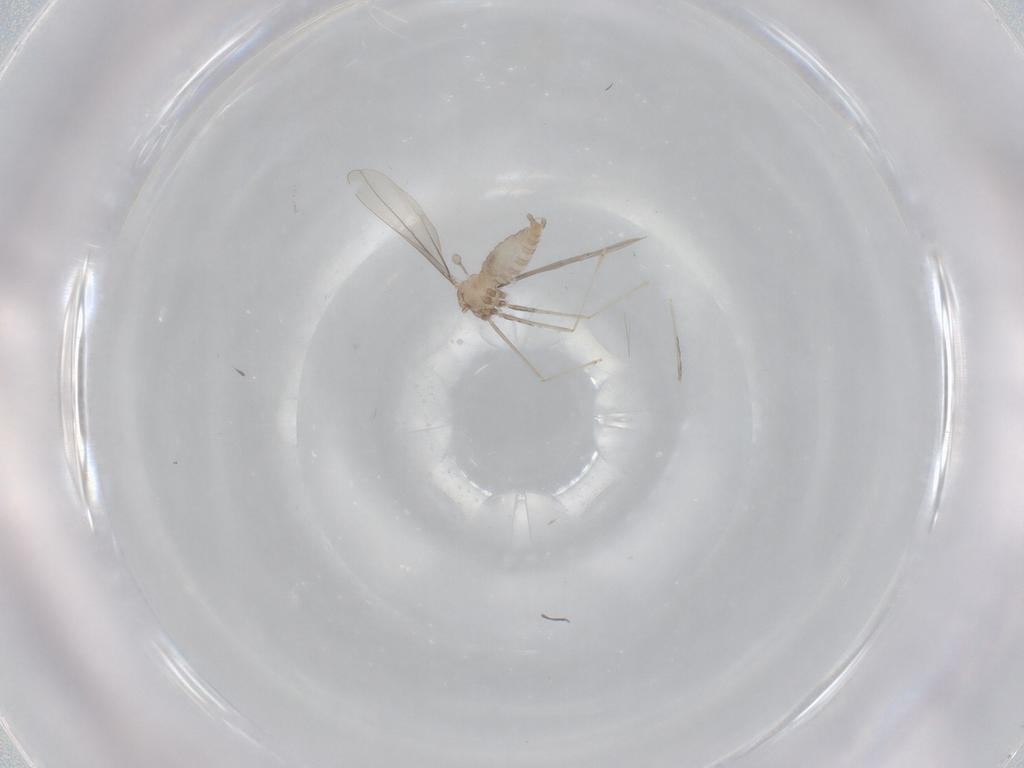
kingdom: Animalia
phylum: Arthropoda
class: Insecta
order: Diptera
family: Cecidomyiidae
